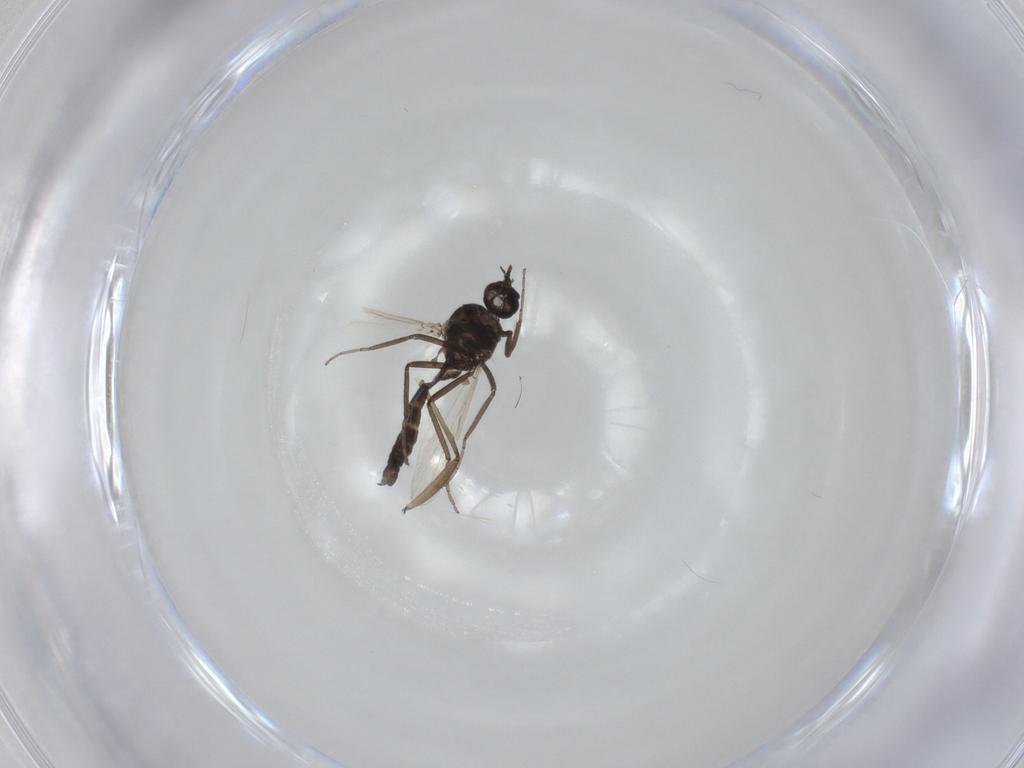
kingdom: Animalia
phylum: Arthropoda
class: Insecta
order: Diptera
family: Ceratopogonidae
